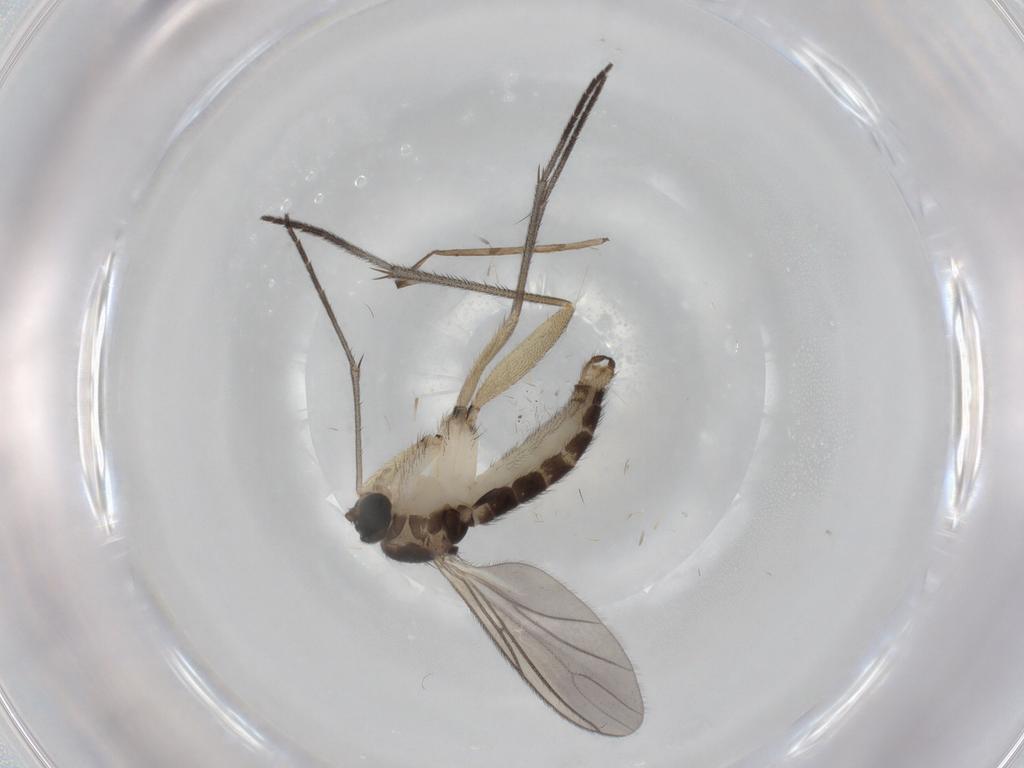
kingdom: Animalia
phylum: Arthropoda
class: Insecta
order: Diptera
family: Sciaridae
